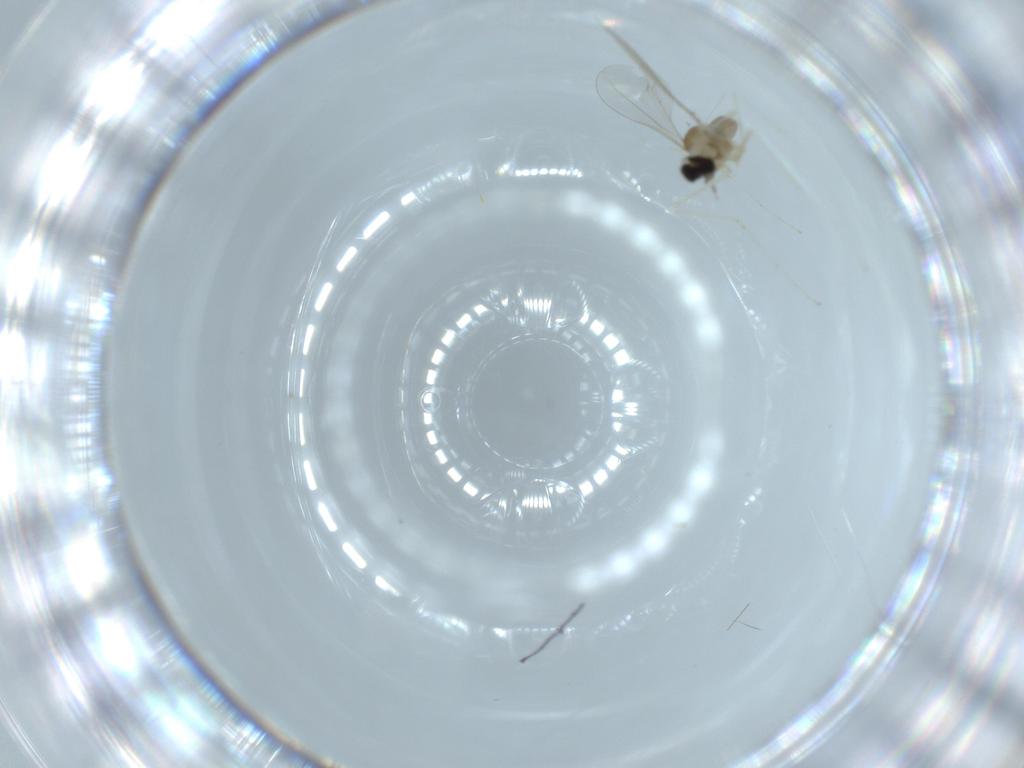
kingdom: Animalia
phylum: Arthropoda
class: Insecta
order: Diptera
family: Cecidomyiidae
